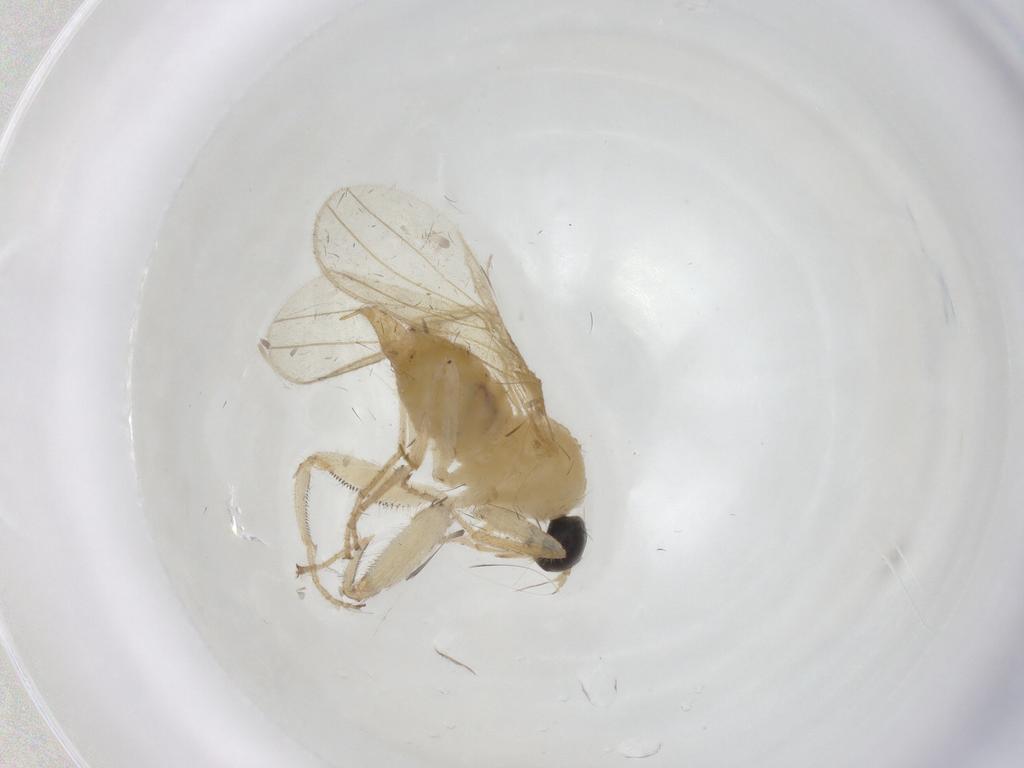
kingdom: Animalia
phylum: Arthropoda
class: Insecta
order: Diptera
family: Hybotidae
